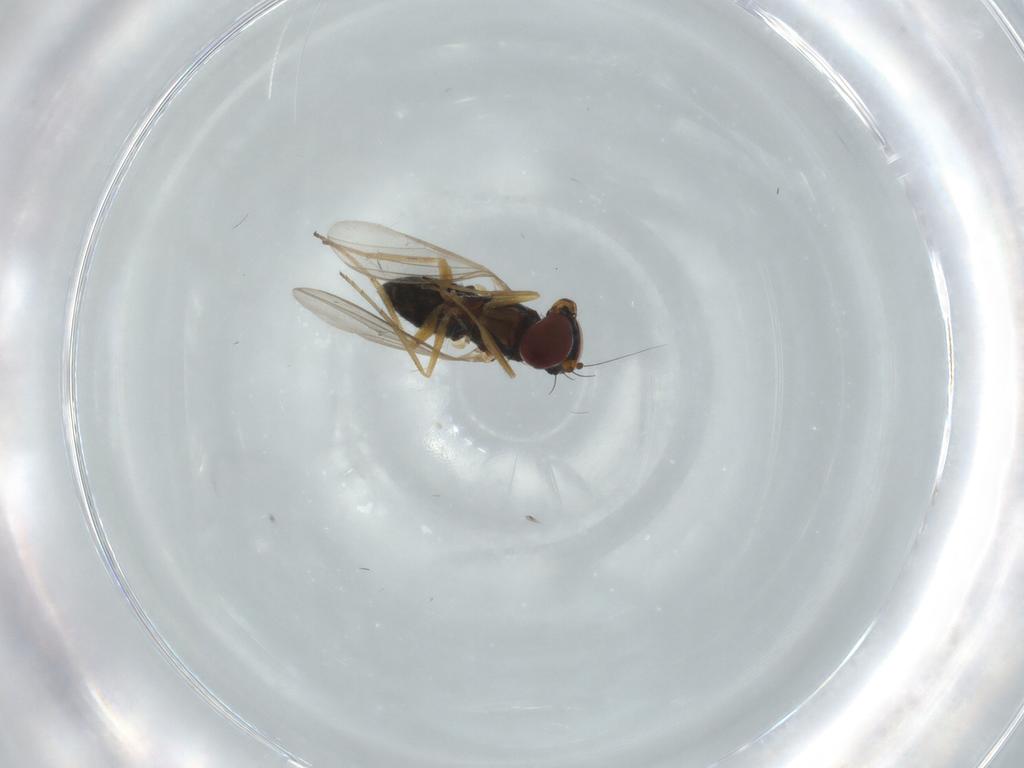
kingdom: Animalia
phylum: Arthropoda
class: Insecta
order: Diptera
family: Dolichopodidae
